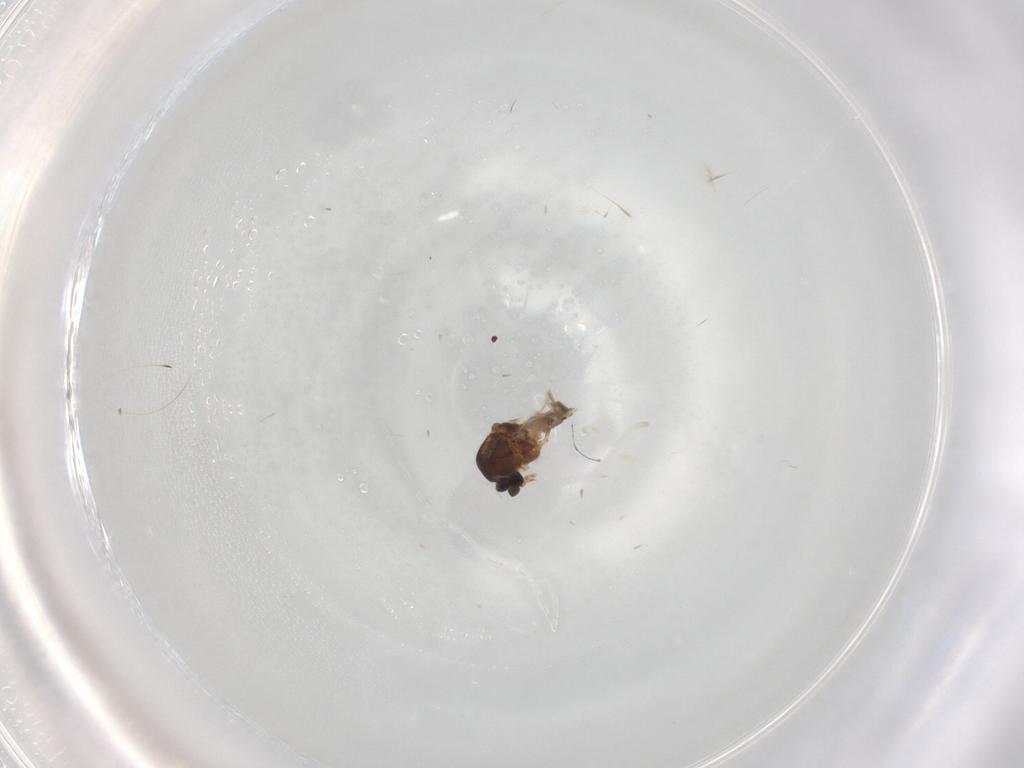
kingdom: Animalia
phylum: Arthropoda
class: Insecta
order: Diptera
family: Ceratopogonidae
